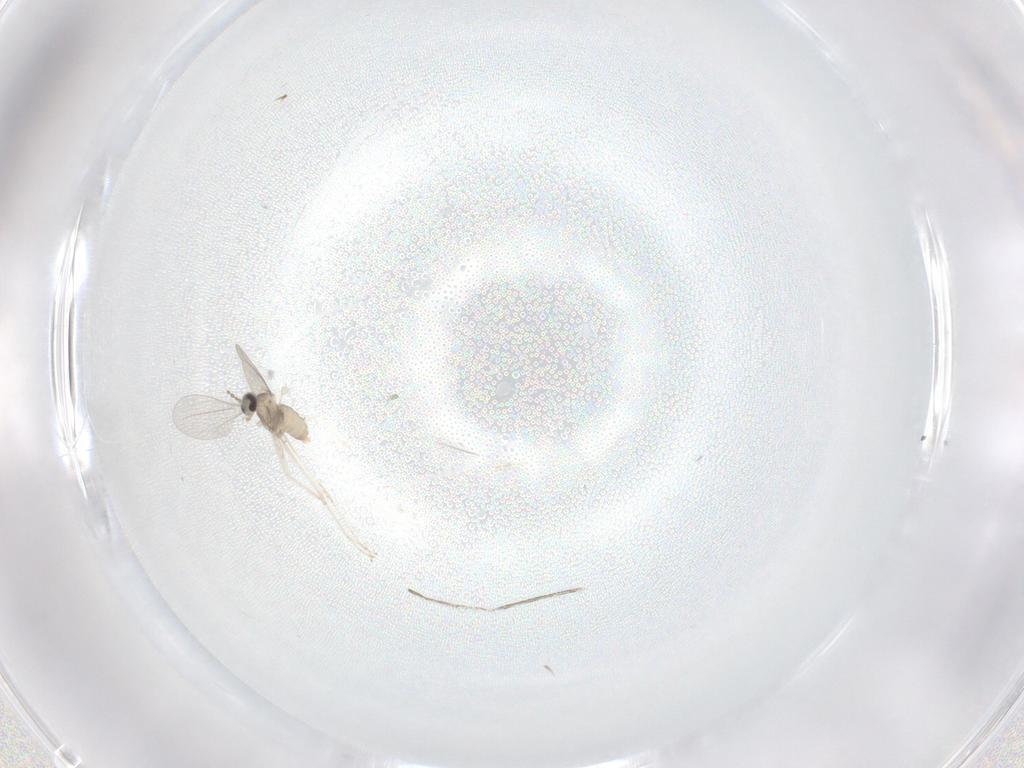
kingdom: Animalia
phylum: Arthropoda
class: Insecta
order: Diptera
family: Cecidomyiidae
